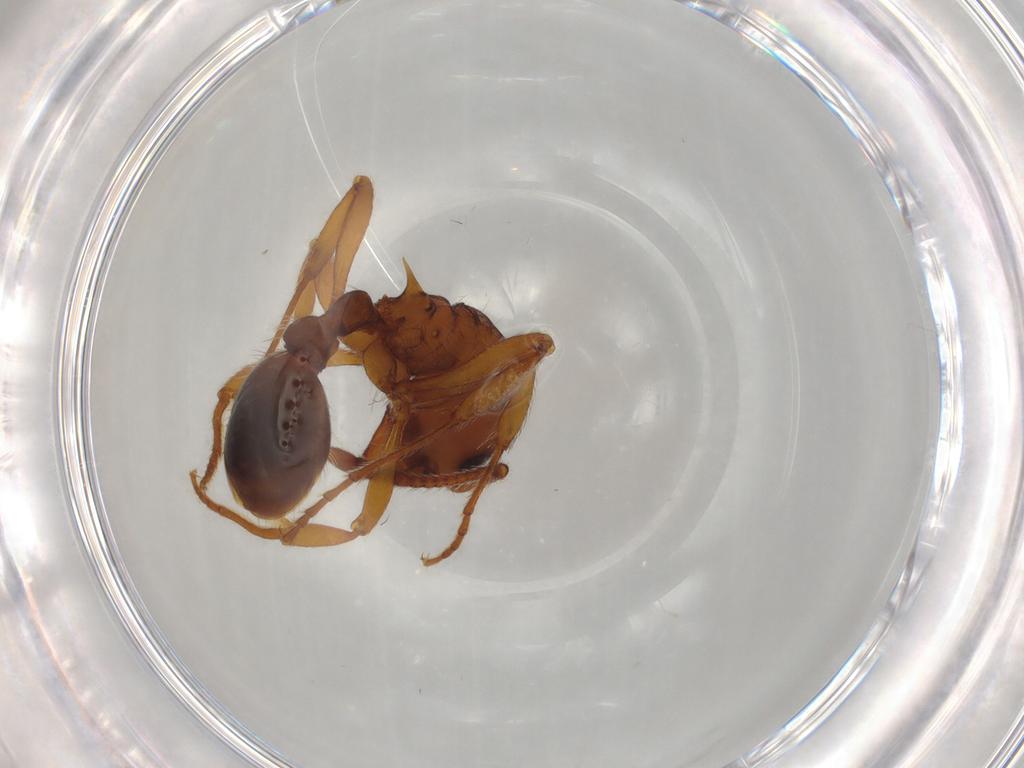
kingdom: Animalia
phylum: Arthropoda
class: Insecta
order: Hymenoptera
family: Formicidae
